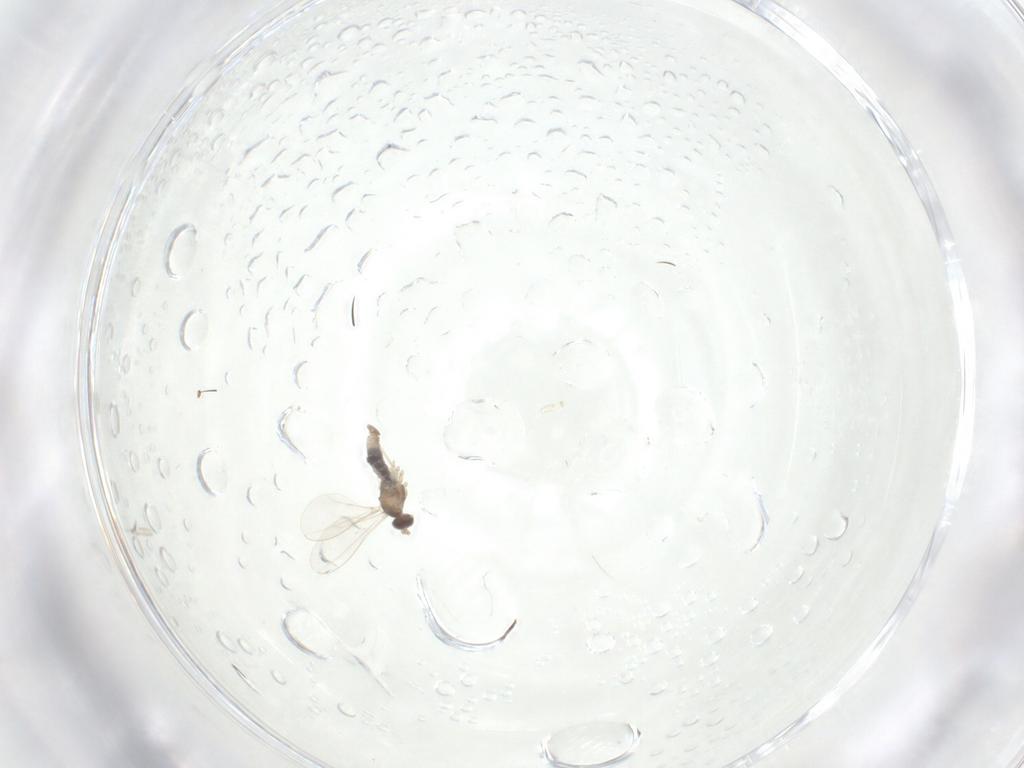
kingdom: Animalia
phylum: Arthropoda
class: Insecta
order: Diptera
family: Cecidomyiidae
